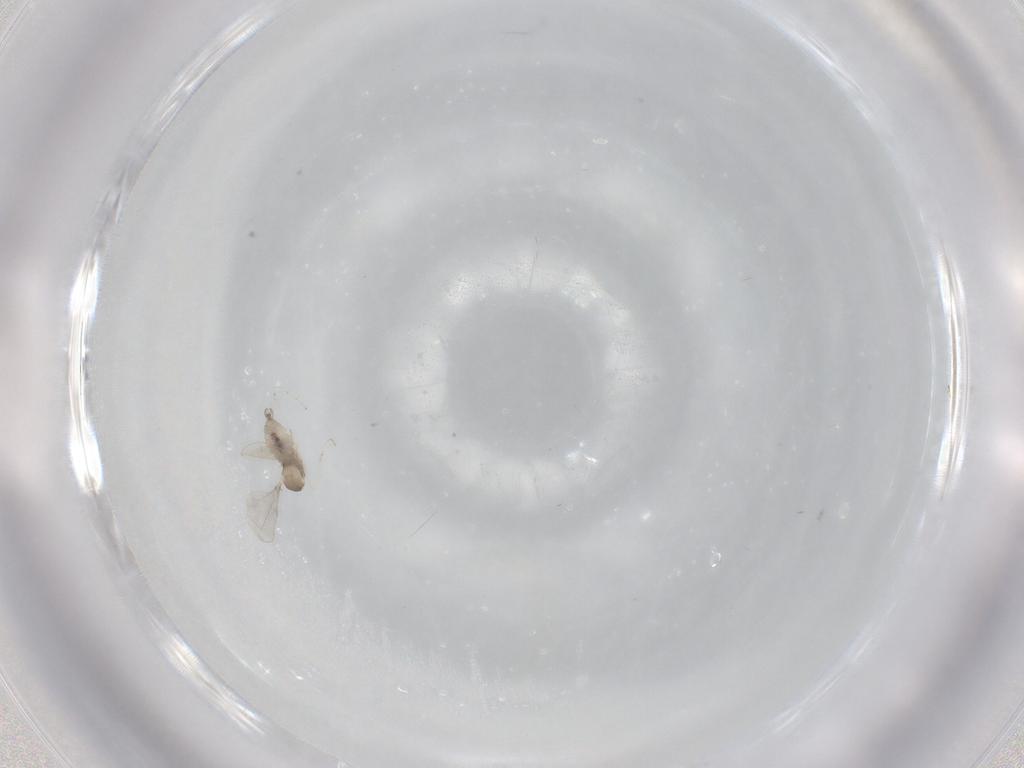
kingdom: Animalia
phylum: Arthropoda
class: Insecta
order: Diptera
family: Cecidomyiidae
